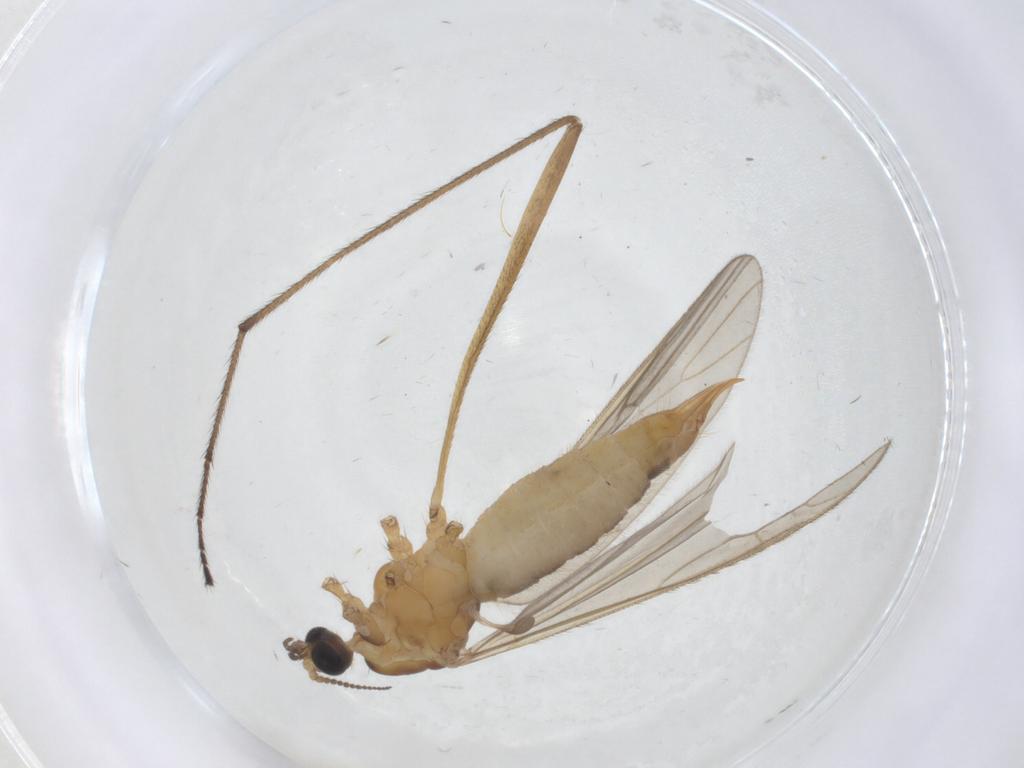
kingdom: Animalia
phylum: Arthropoda
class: Insecta
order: Diptera
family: Limoniidae
